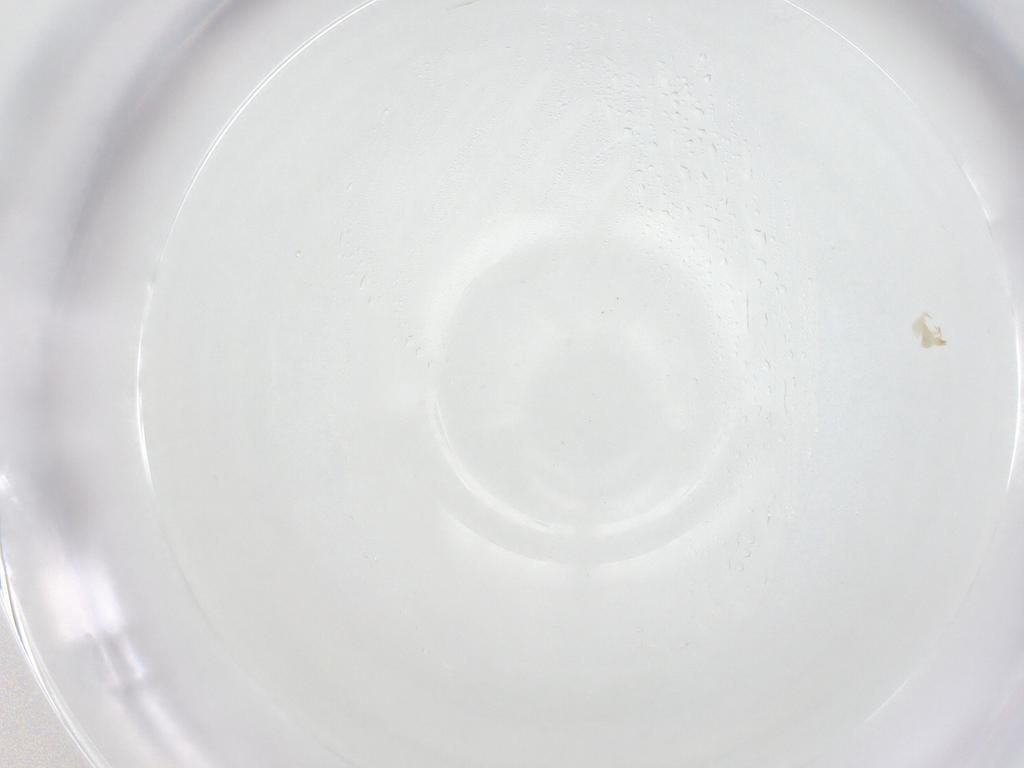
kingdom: Animalia
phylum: Arthropoda
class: Arachnida
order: Trombidiformes
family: Cunaxidae
